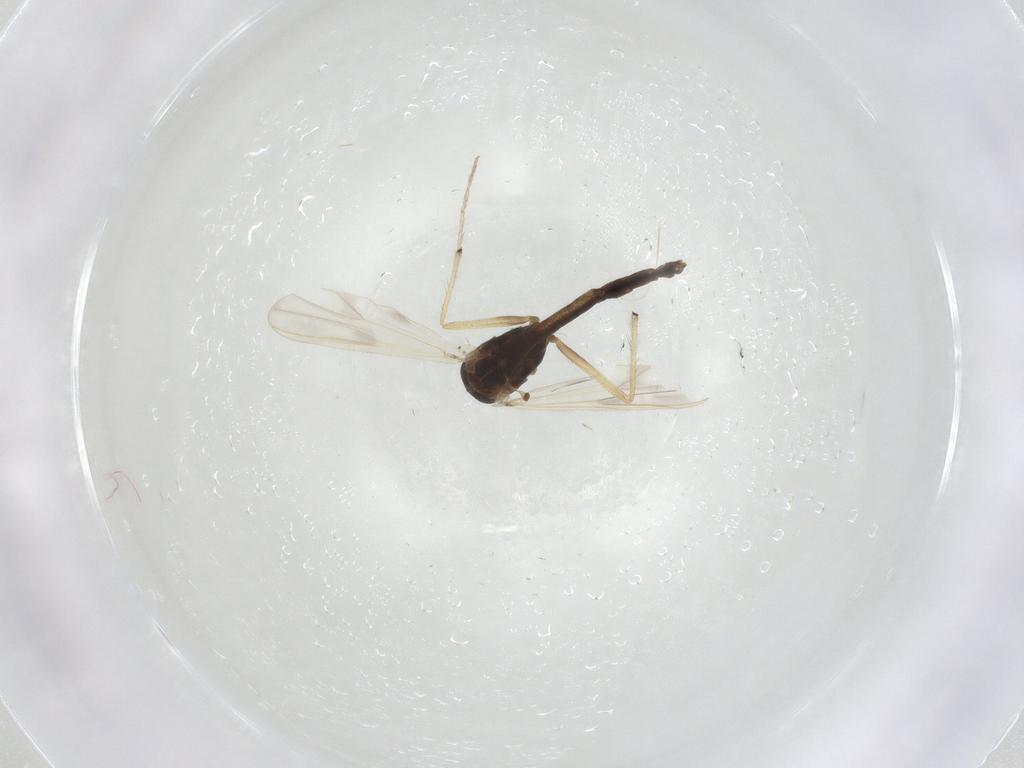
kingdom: Animalia
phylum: Arthropoda
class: Insecta
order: Diptera
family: Chironomidae
